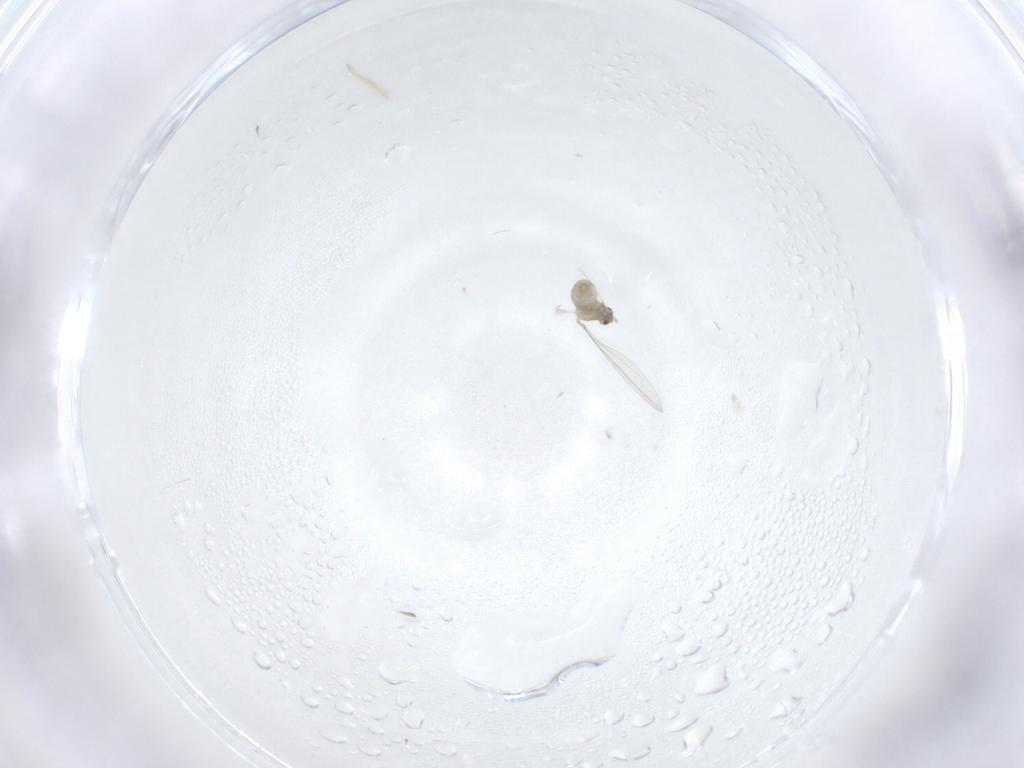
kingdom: Animalia
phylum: Arthropoda
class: Insecta
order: Diptera
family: Cecidomyiidae
